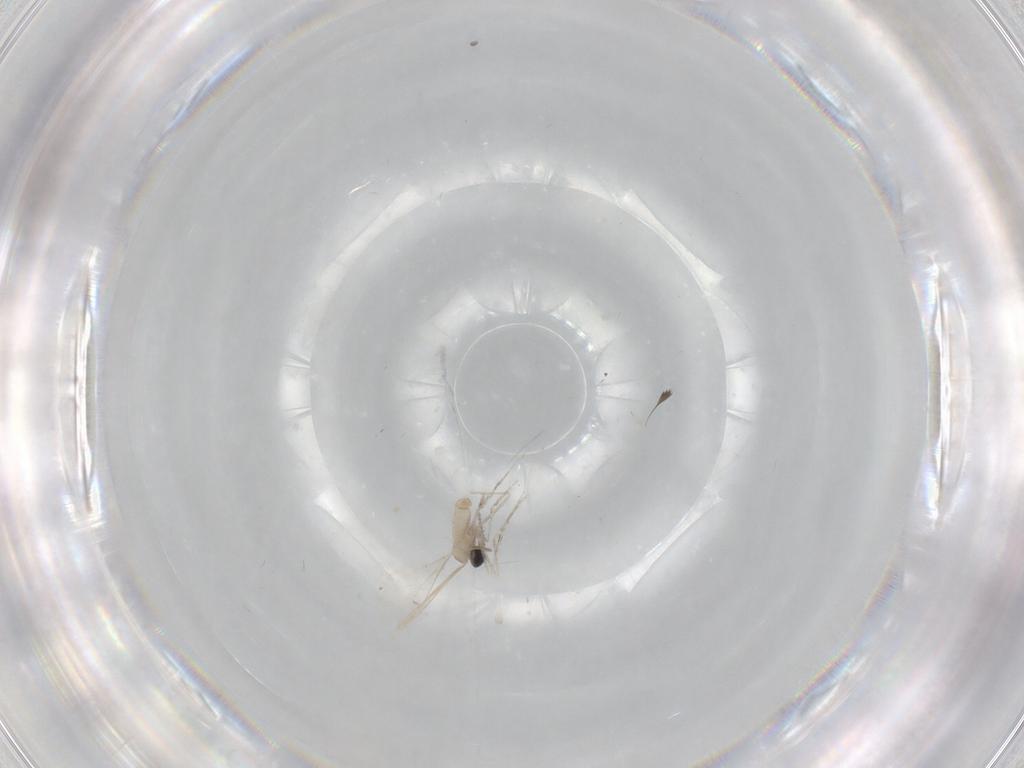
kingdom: Animalia
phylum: Arthropoda
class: Insecta
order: Diptera
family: Cecidomyiidae
